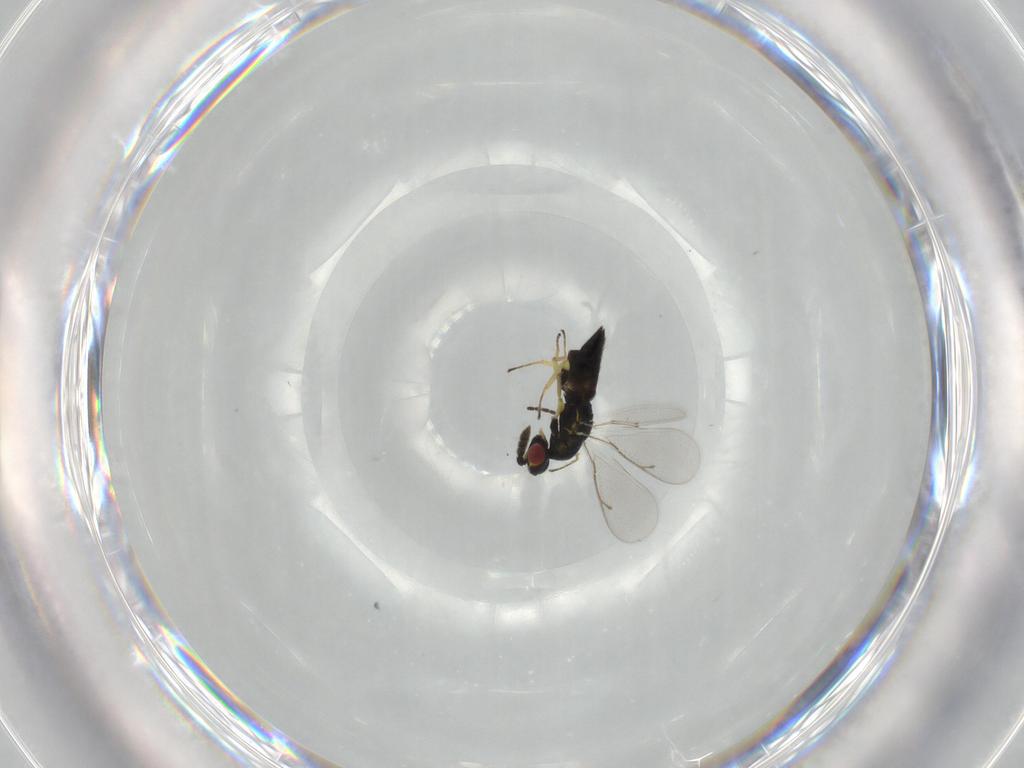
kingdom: Animalia
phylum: Arthropoda
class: Insecta
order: Hymenoptera
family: Eulophidae
